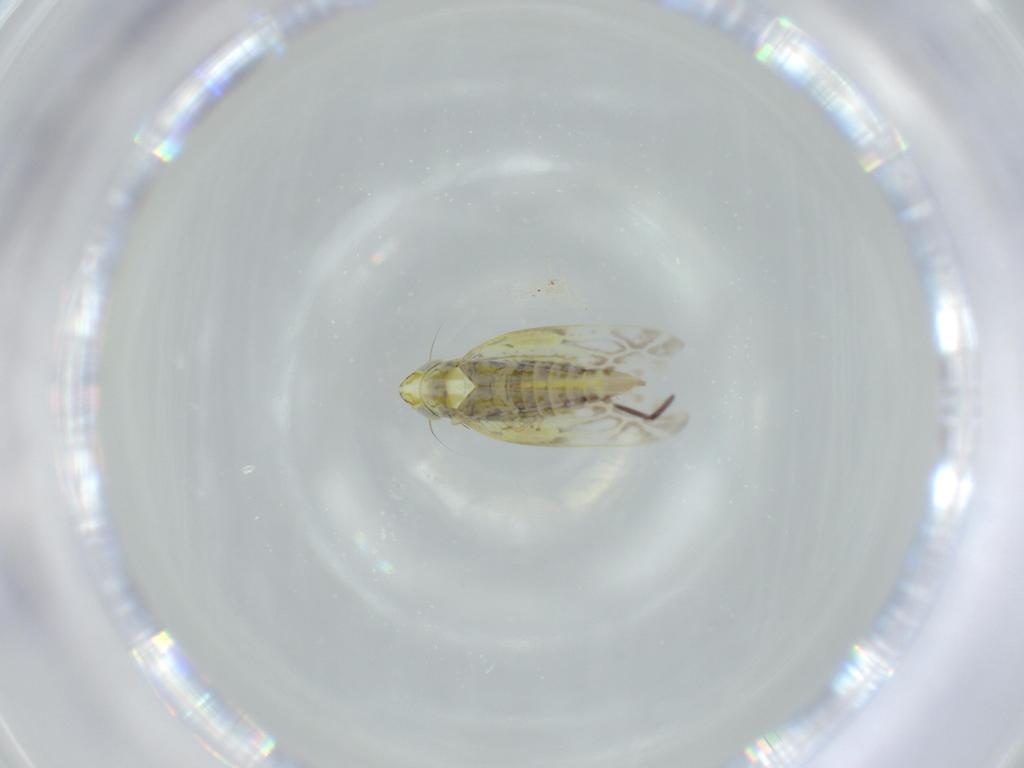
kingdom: Animalia
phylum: Arthropoda
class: Insecta
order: Hemiptera
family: Cicadellidae
